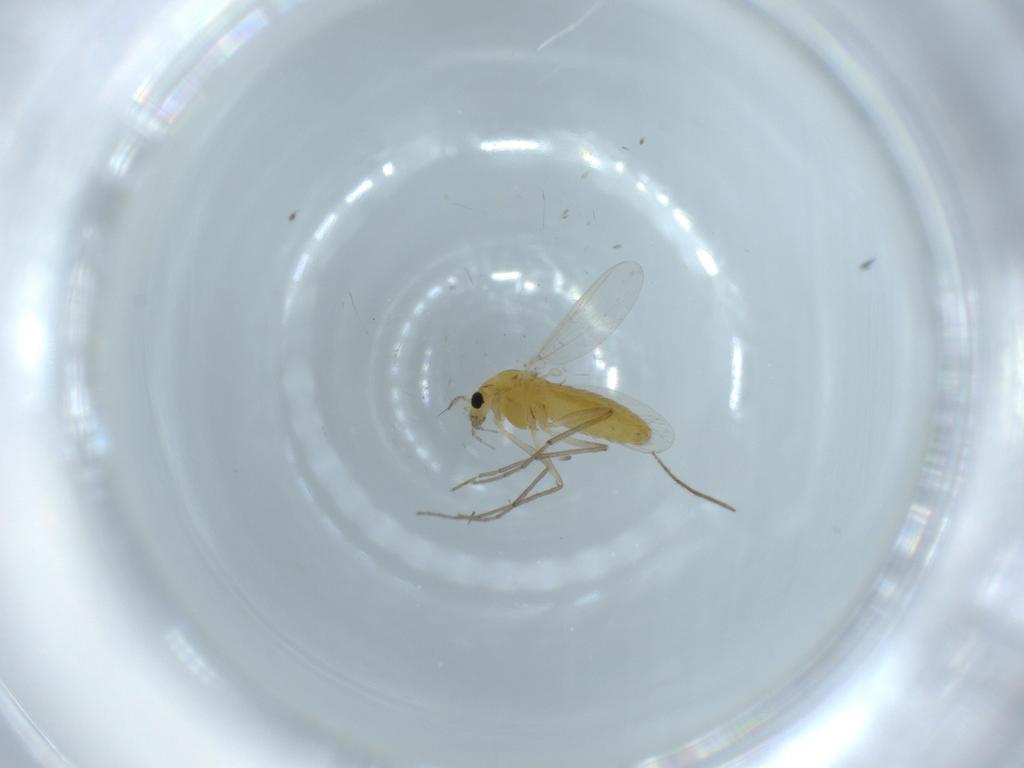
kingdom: Animalia
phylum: Arthropoda
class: Insecta
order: Diptera
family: Chironomidae
